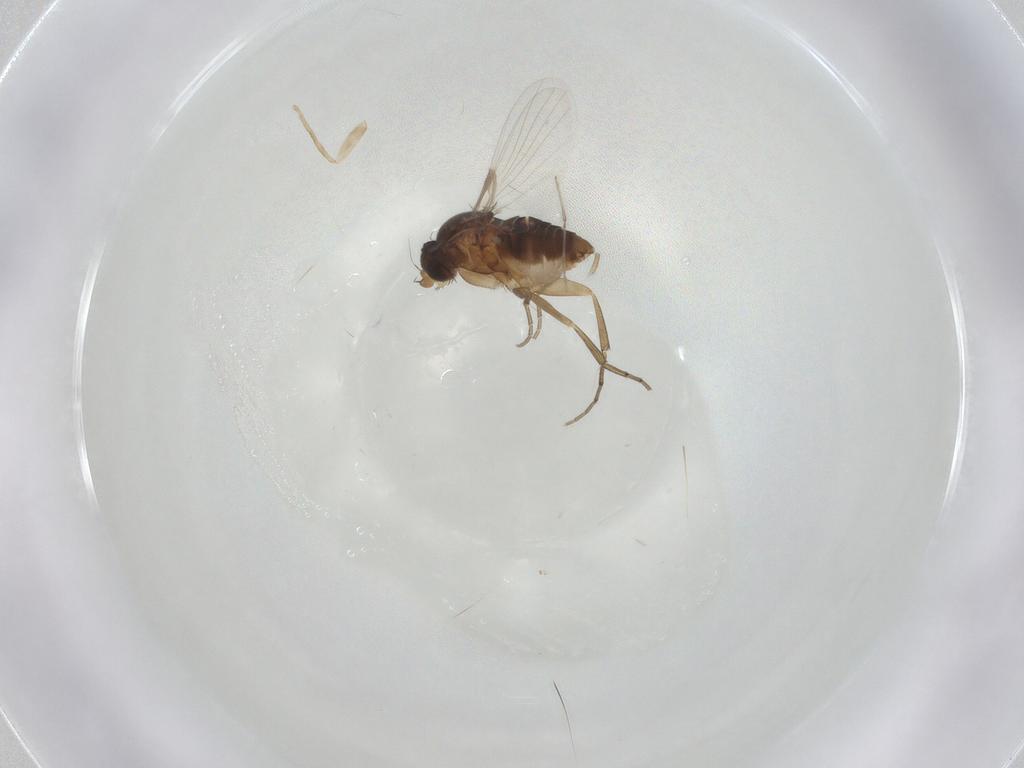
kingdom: Animalia
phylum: Arthropoda
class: Insecta
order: Diptera
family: Phoridae
